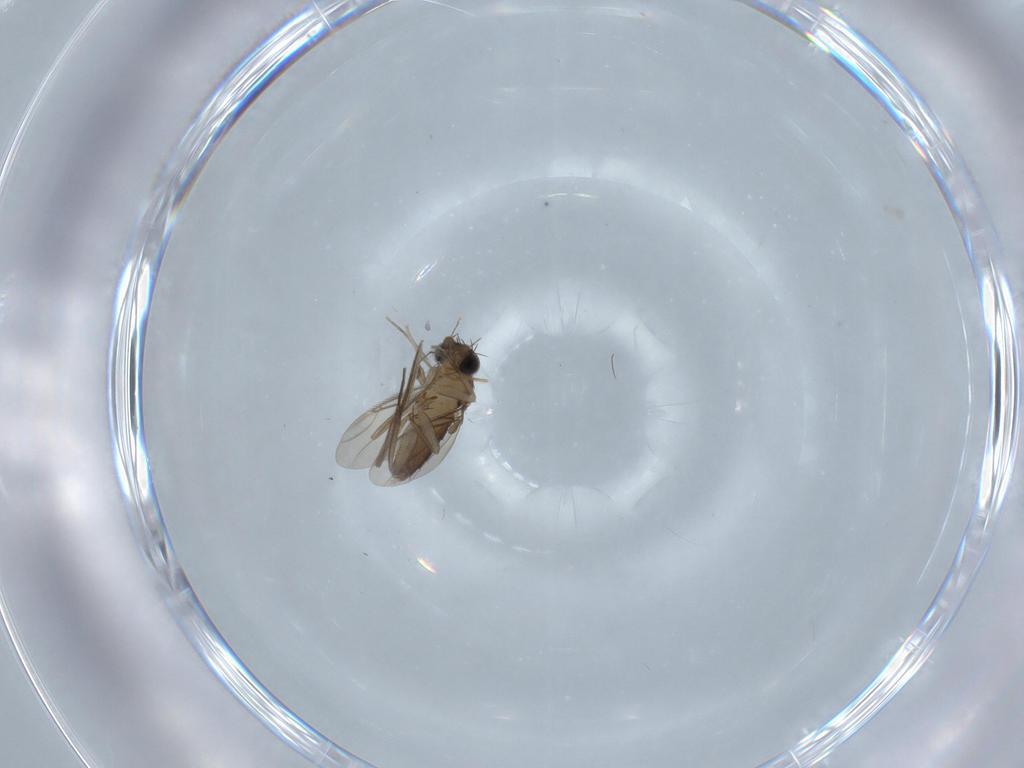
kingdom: Animalia
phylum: Arthropoda
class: Insecta
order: Diptera
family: Phoridae
